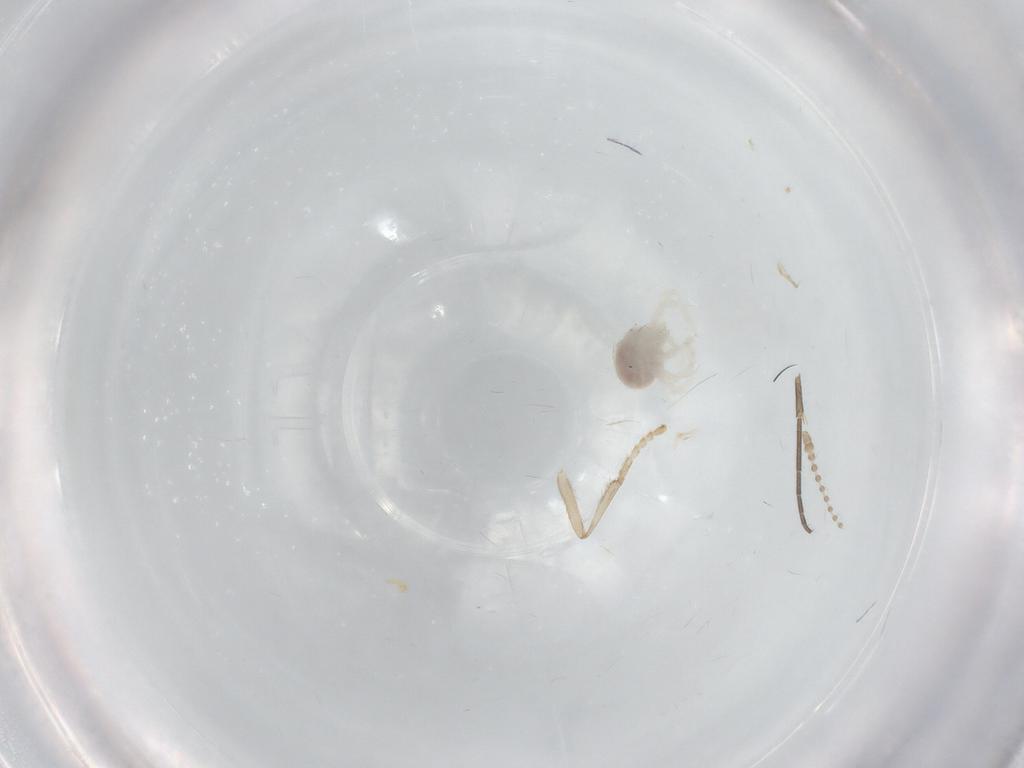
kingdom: Animalia
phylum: Arthropoda
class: Arachnida
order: Trombidiformes
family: Anystidae
